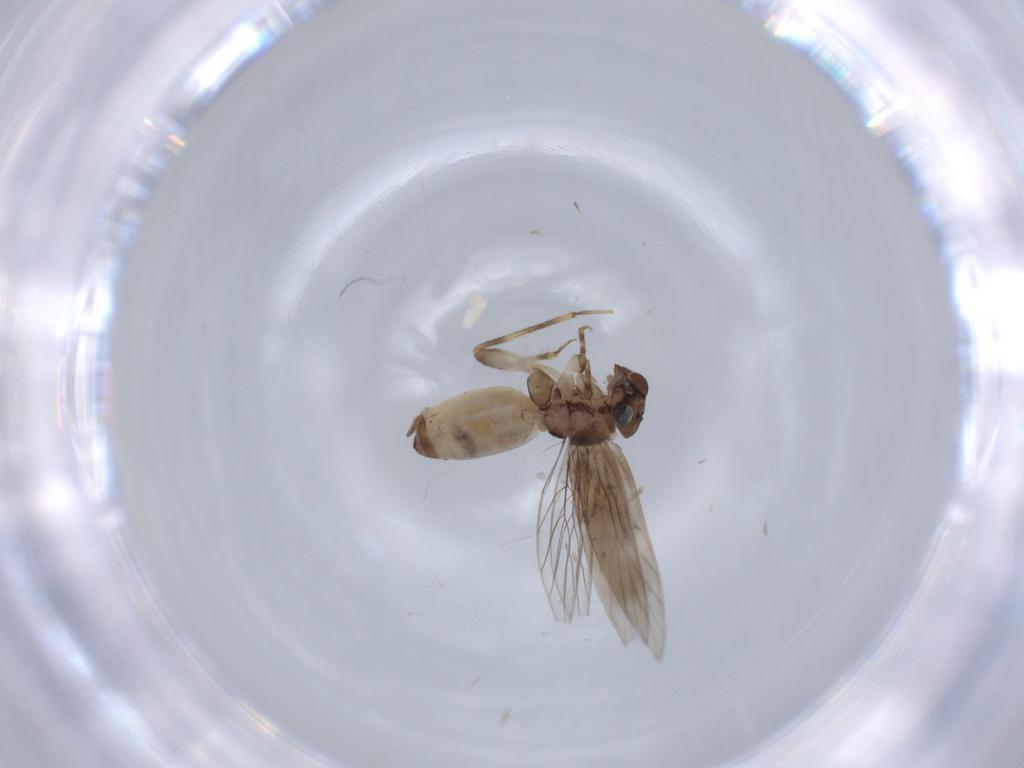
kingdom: Animalia
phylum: Arthropoda
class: Insecta
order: Psocodea
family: Lepidopsocidae
